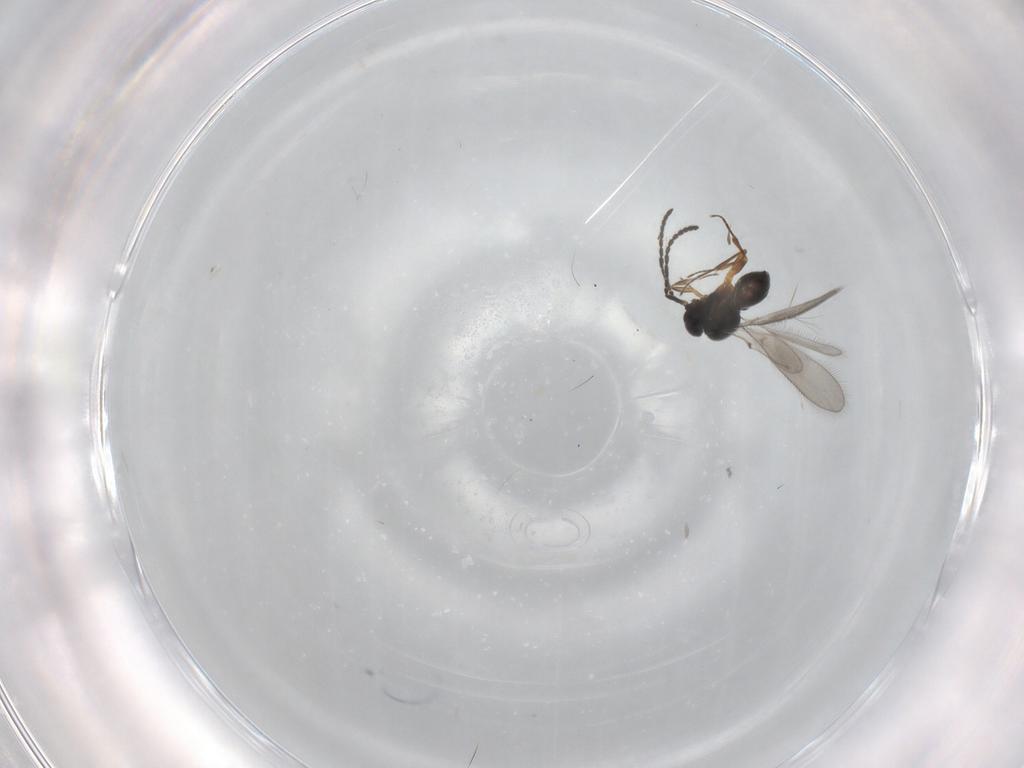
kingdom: Animalia
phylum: Arthropoda
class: Insecta
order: Hymenoptera
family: Scelionidae
